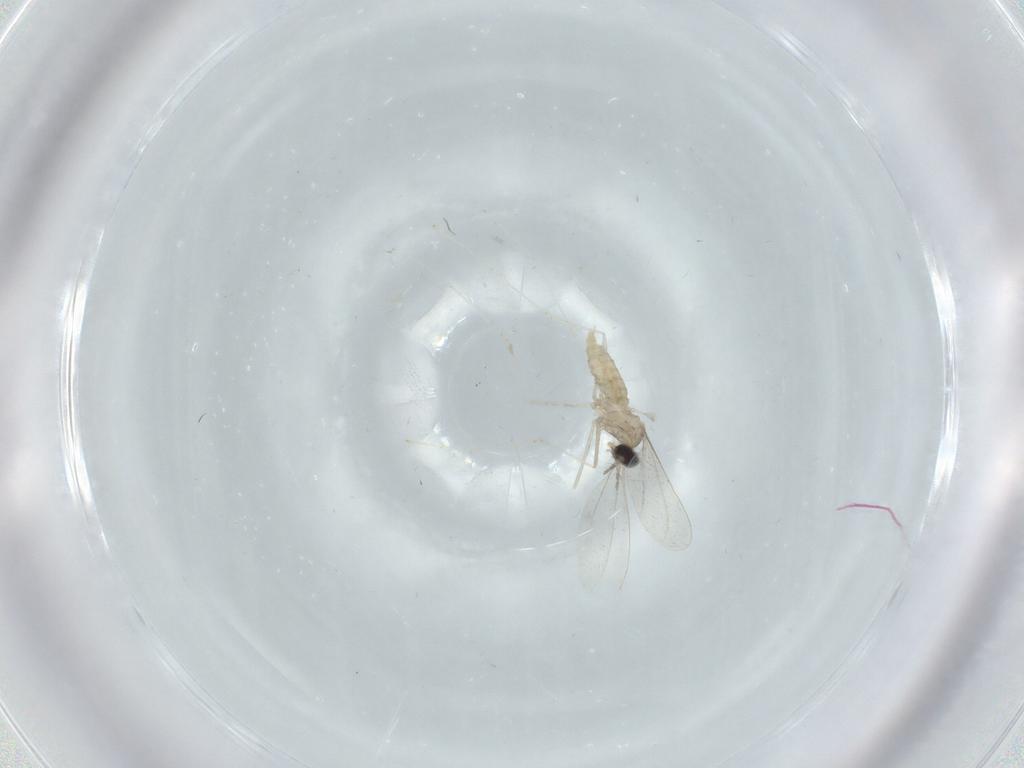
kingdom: Animalia
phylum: Arthropoda
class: Insecta
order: Diptera
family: Cecidomyiidae
